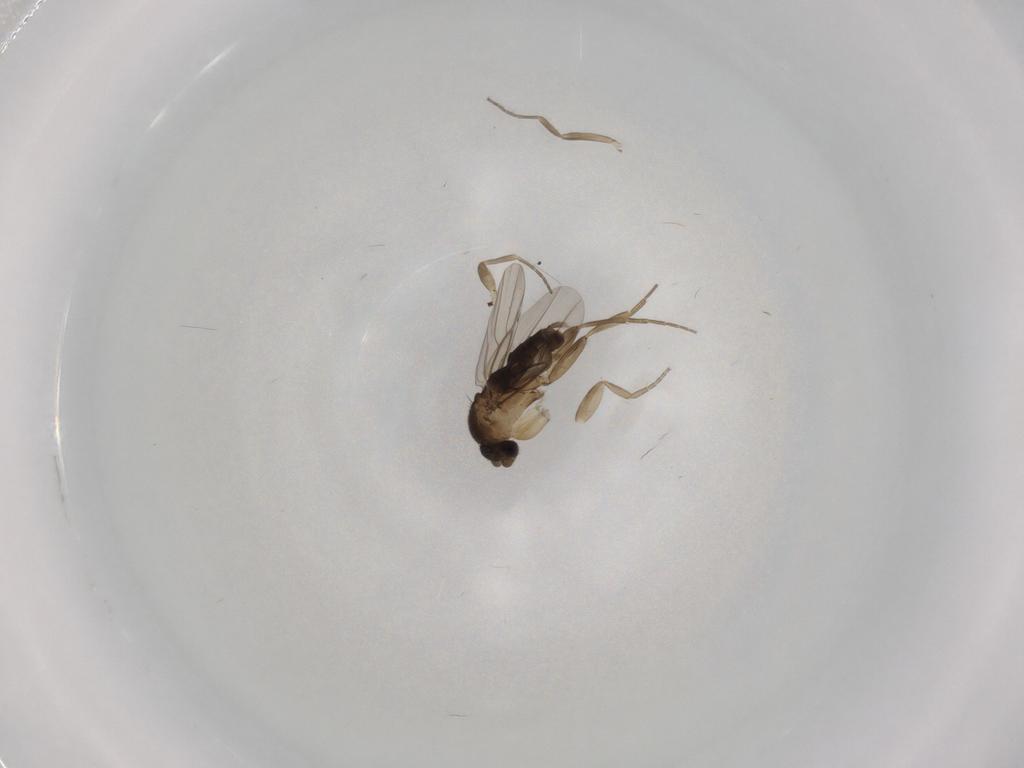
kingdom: Animalia
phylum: Arthropoda
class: Insecta
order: Diptera
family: Phoridae
